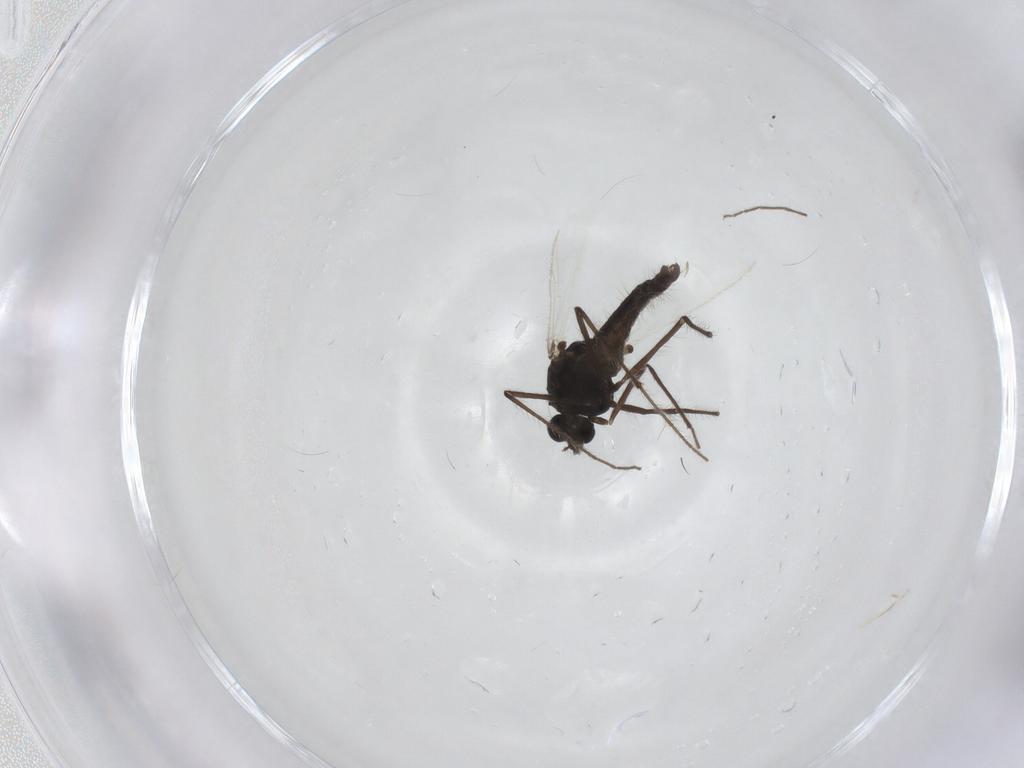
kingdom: Animalia
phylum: Arthropoda
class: Insecta
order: Diptera
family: Chironomidae
